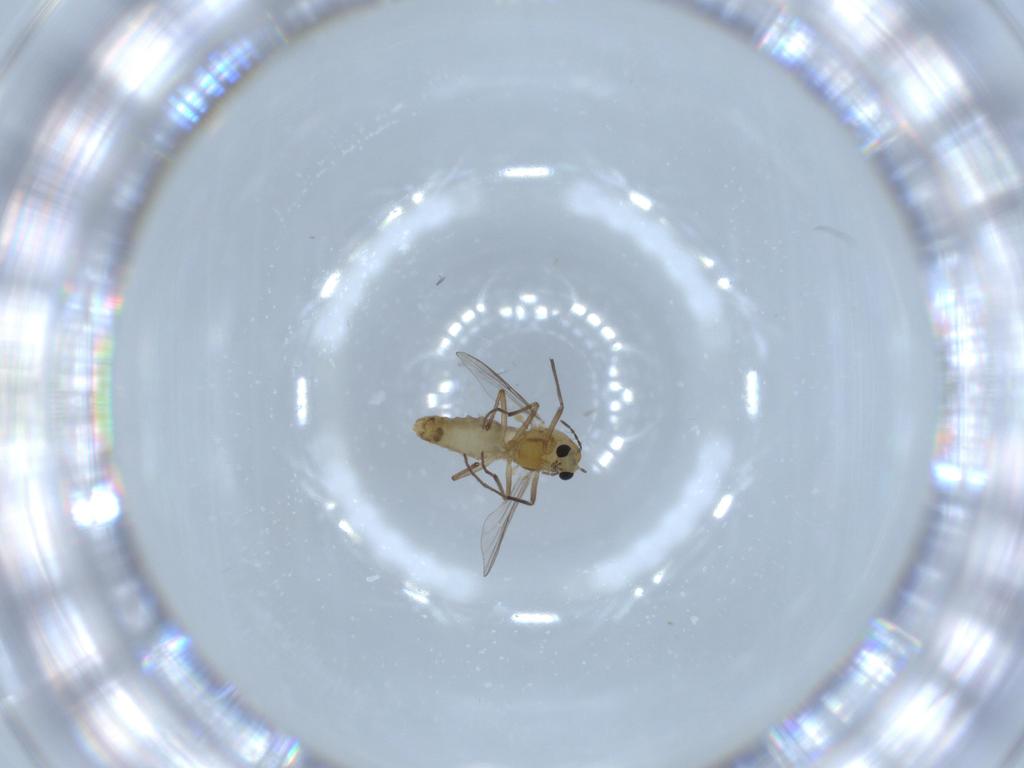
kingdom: Animalia
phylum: Arthropoda
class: Insecta
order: Diptera
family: Chironomidae
